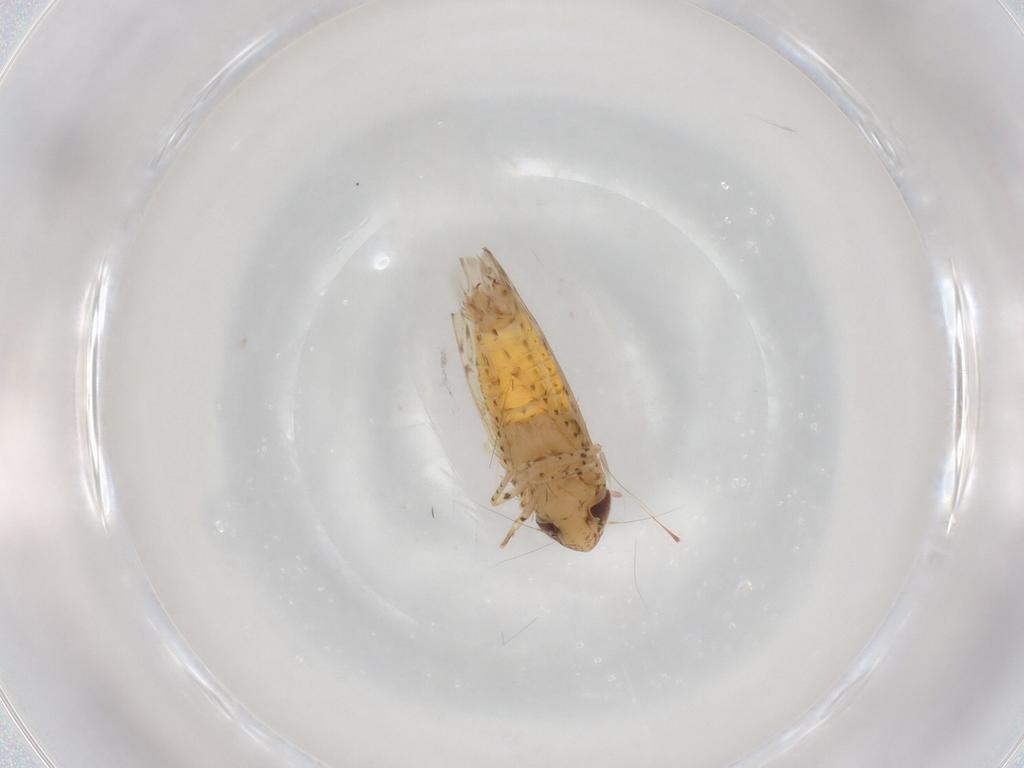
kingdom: Animalia
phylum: Arthropoda
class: Insecta
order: Hemiptera
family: Cicadellidae
